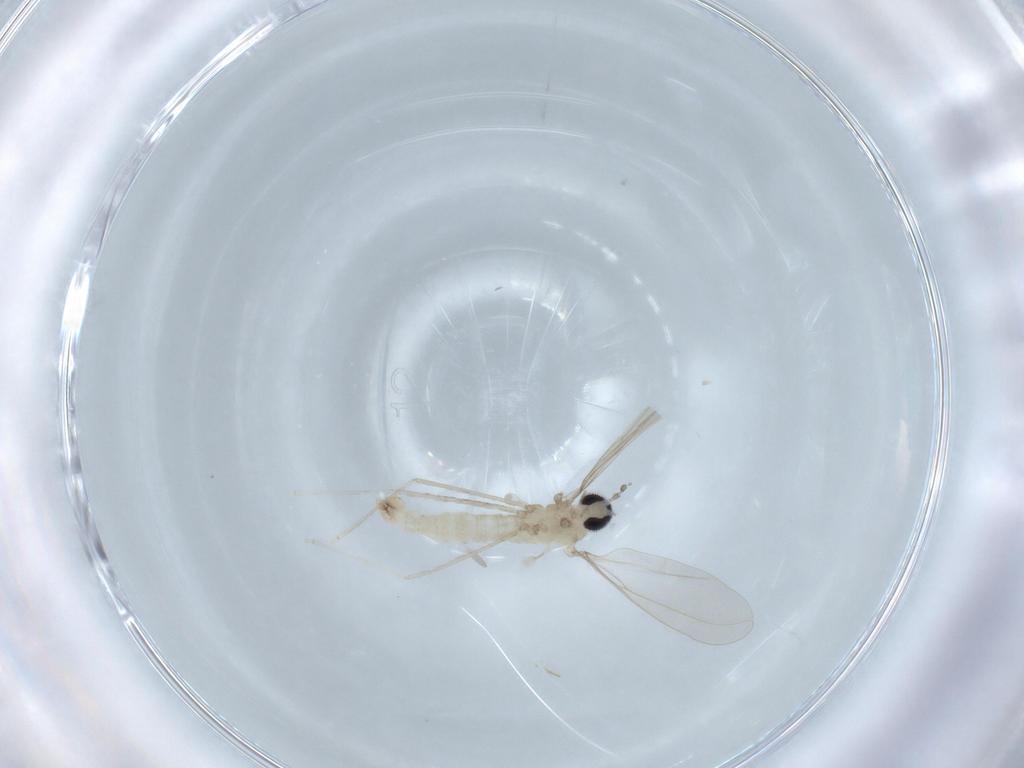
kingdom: Animalia
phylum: Arthropoda
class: Insecta
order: Diptera
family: Cecidomyiidae
